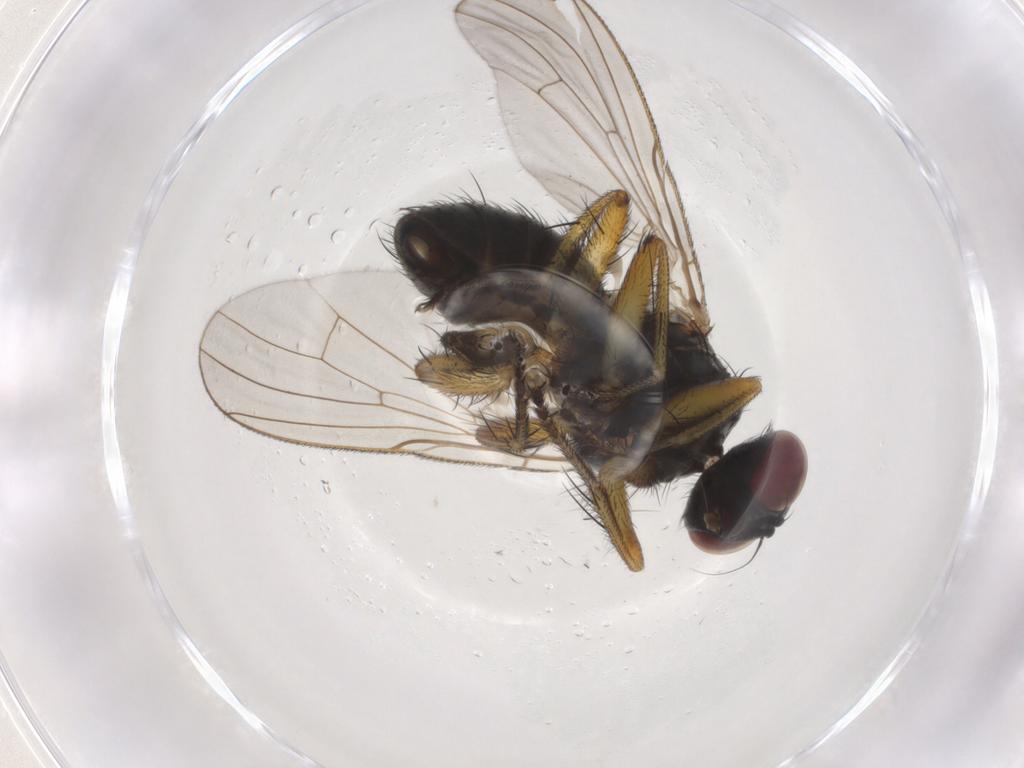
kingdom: Animalia
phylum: Arthropoda
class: Insecta
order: Diptera
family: Muscidae
